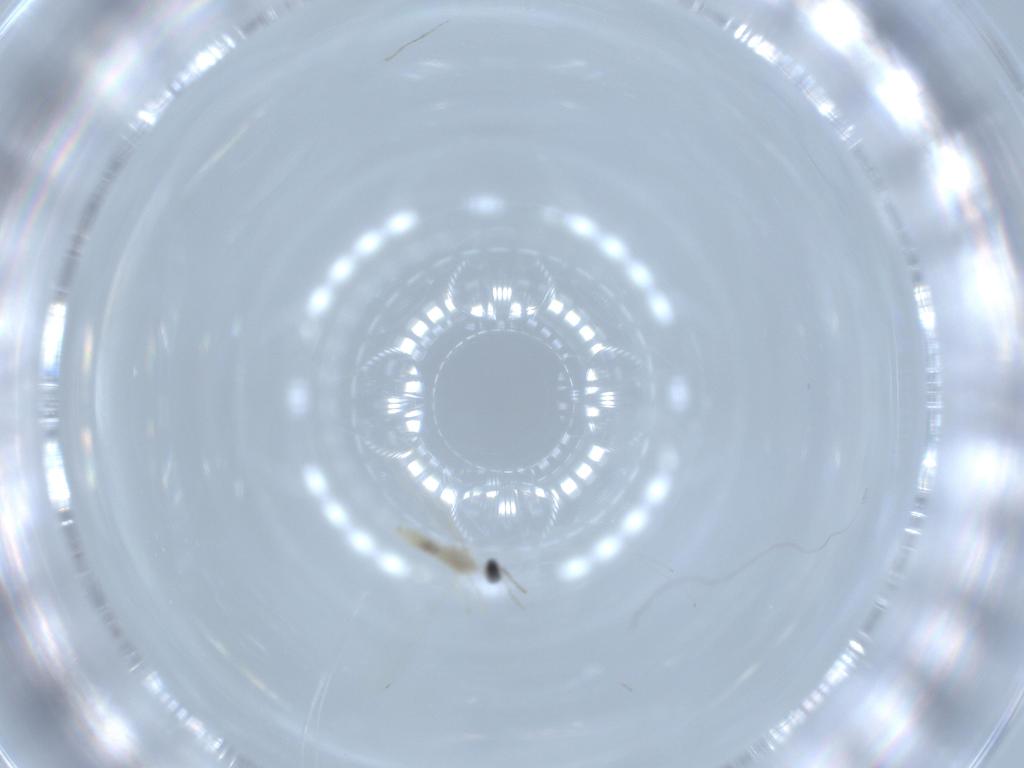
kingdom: Animalia
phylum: Arthropoda
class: Insecta
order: Diptera
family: Cecidomyiidae
